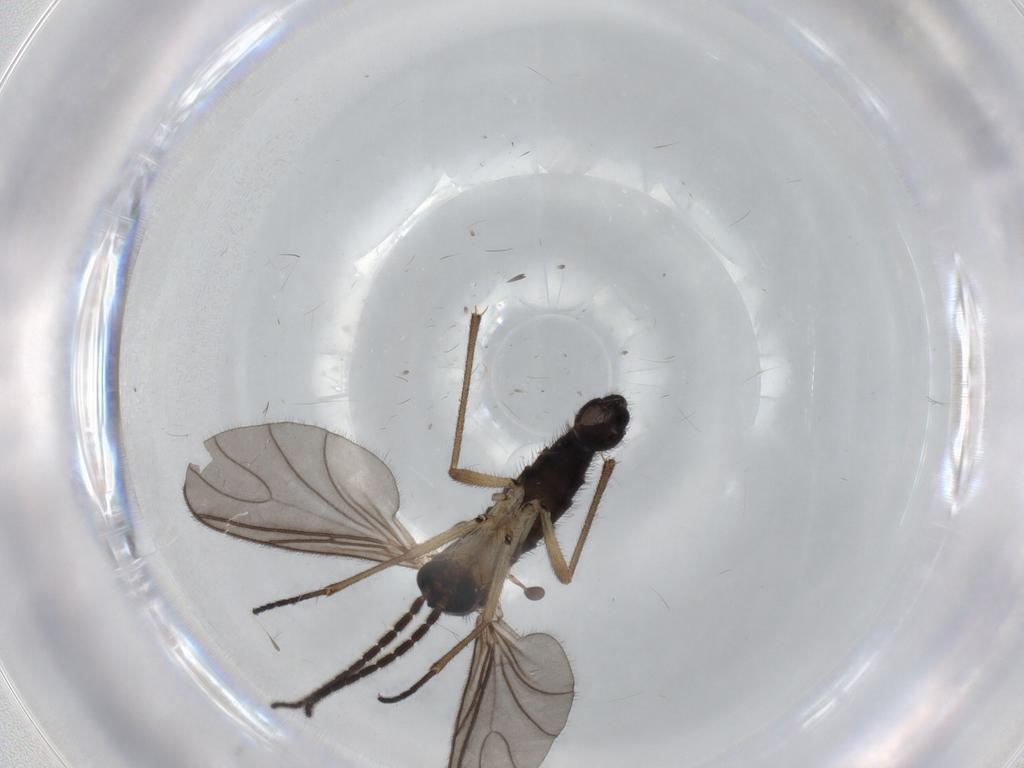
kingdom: Animalia
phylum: Arthropoda
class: Insecta
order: Diptera
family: Sciaridae
